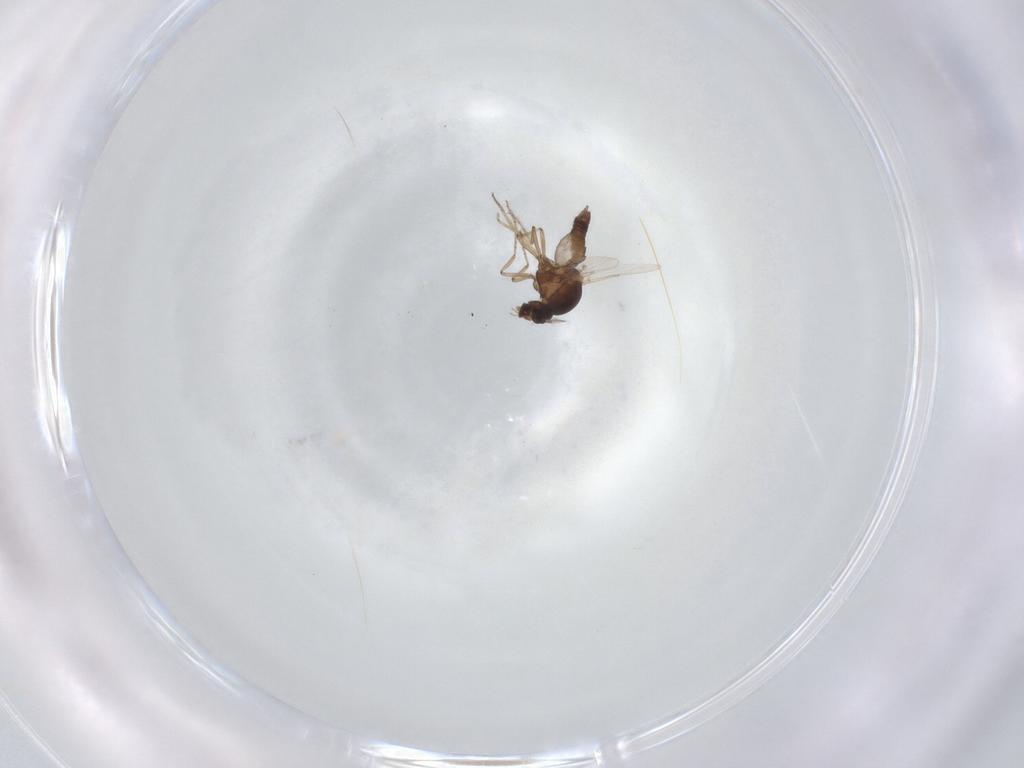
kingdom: Animalia
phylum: Arthropoda
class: Insecta
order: Diptera
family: Ceratopogonidae
